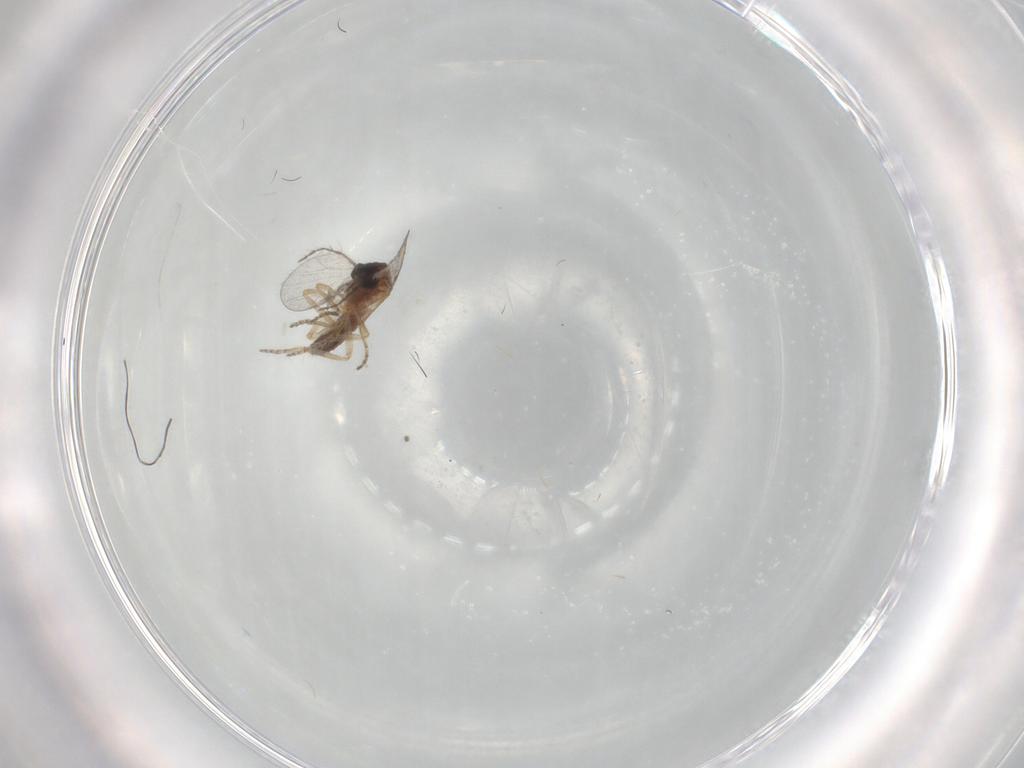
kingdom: Animalia
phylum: Arthropoda
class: Insecta
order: Diptera
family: Ceratopogonidae
